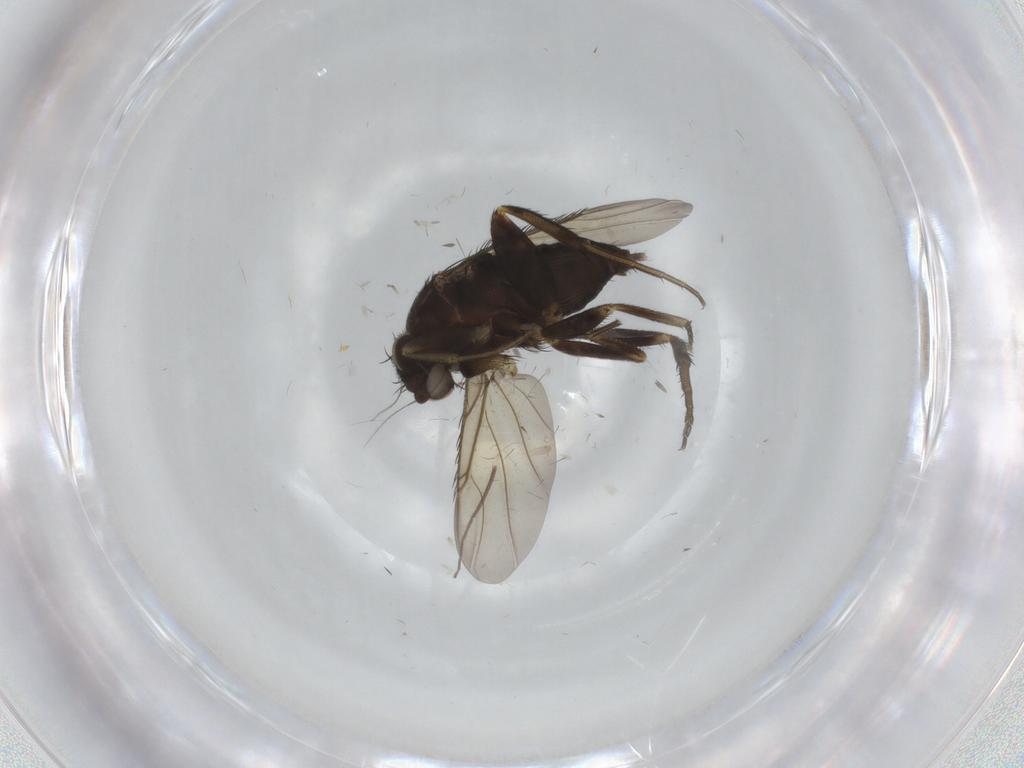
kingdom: Animalia
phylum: Arthropoda
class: Insecta
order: Diptera
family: Phoridae
